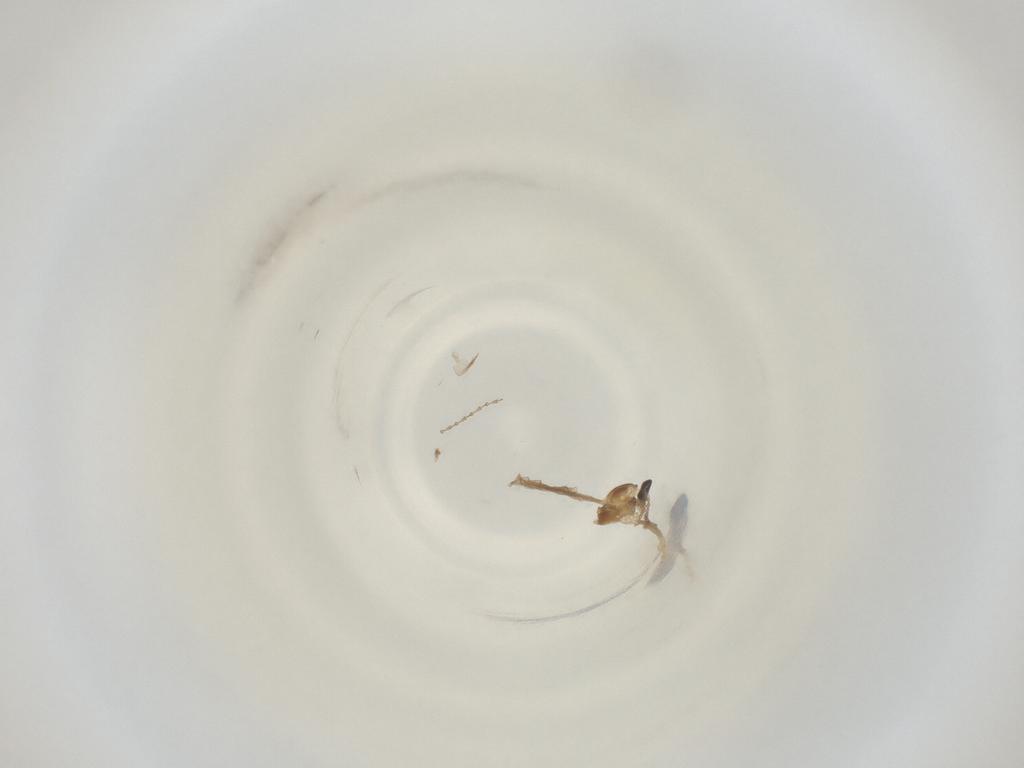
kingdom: Animalia
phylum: Arthropoda
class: Insecta
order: Diptera
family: Cecidomyiidae
